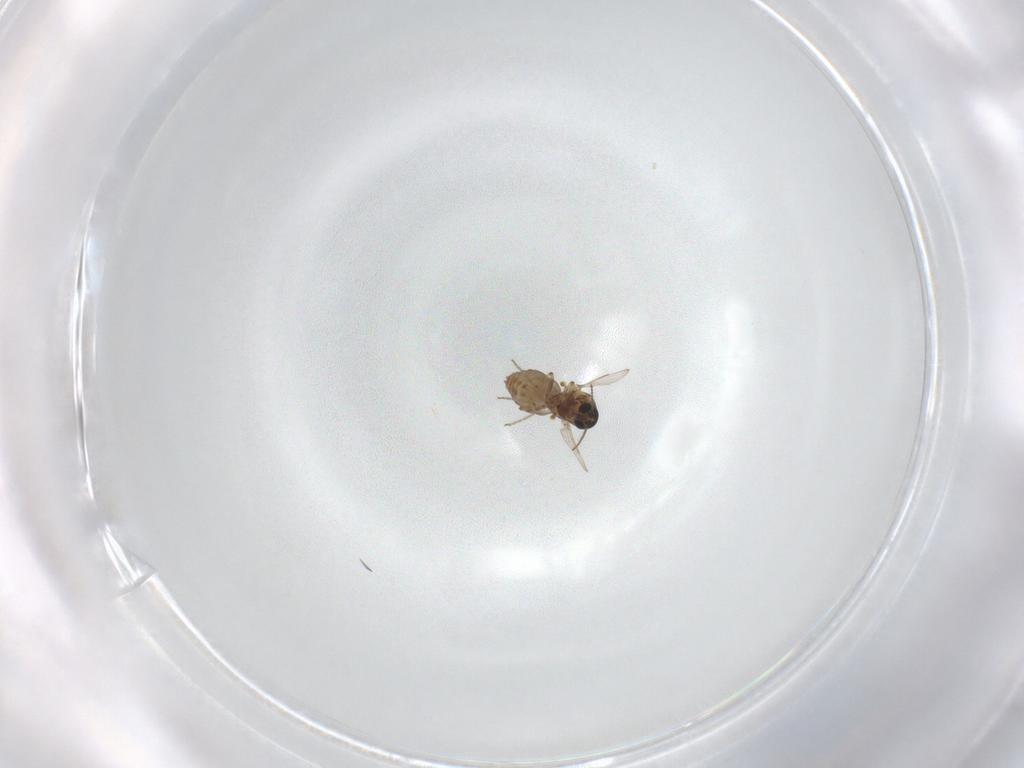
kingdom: Animalia
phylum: Arthropoda
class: Insecta
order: Diptera
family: Ceratopogonidae
